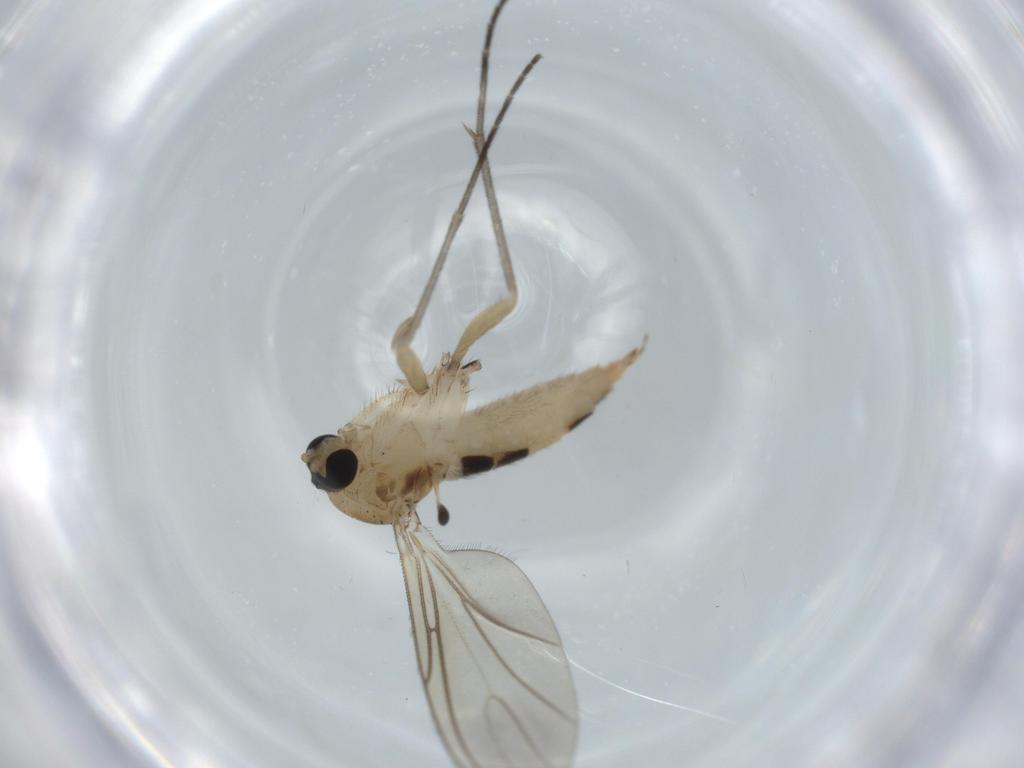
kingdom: Animalia
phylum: Arthropoda
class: Insecta
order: Diptera
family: Sciaridae
